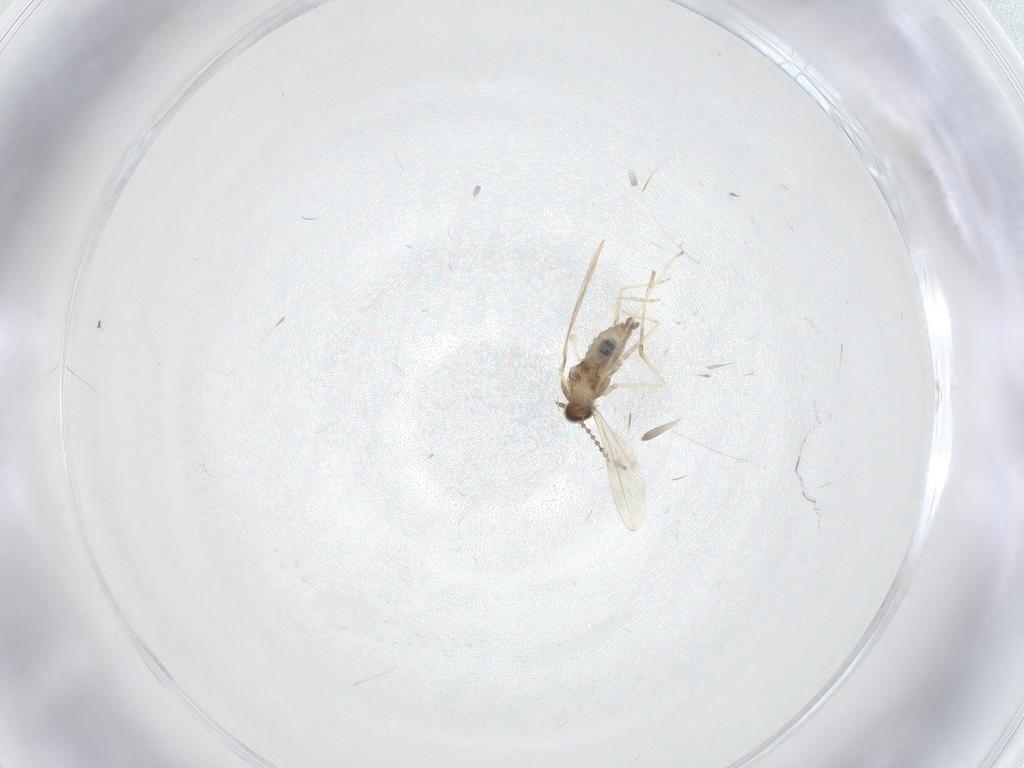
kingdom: Animalia
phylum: Arthropoda
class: Insecta
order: Diptera
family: Cecidomyiidae
